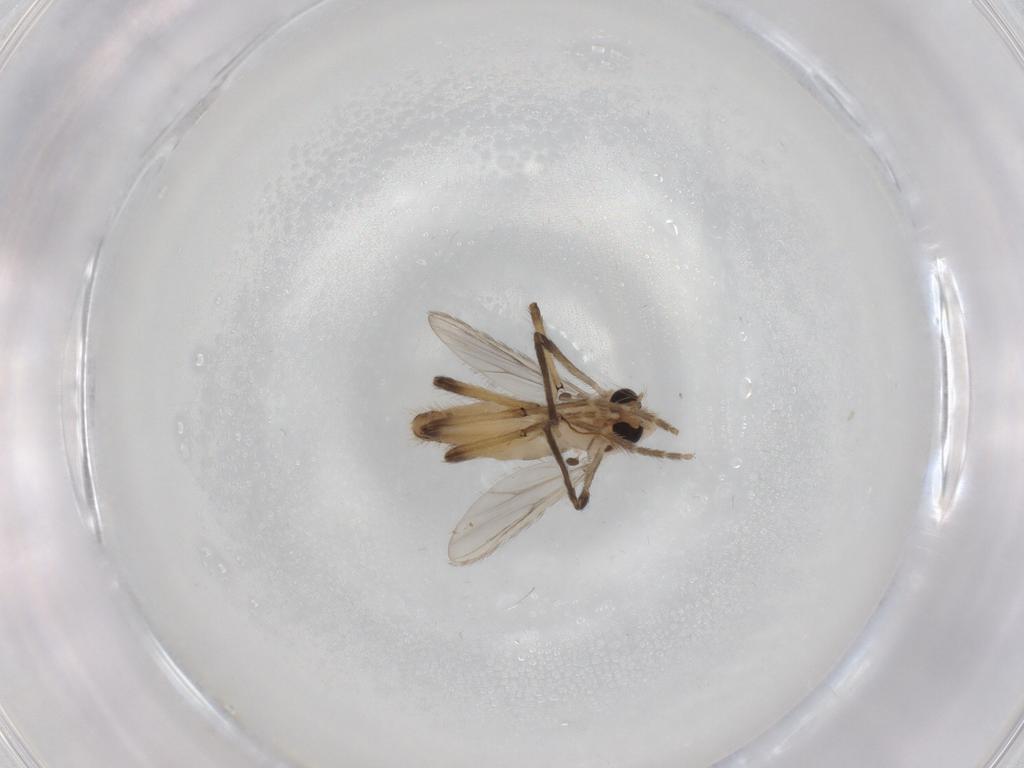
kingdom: Animalia
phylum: Arthropoda
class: Insecta
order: Diptera
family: Chironomidae
